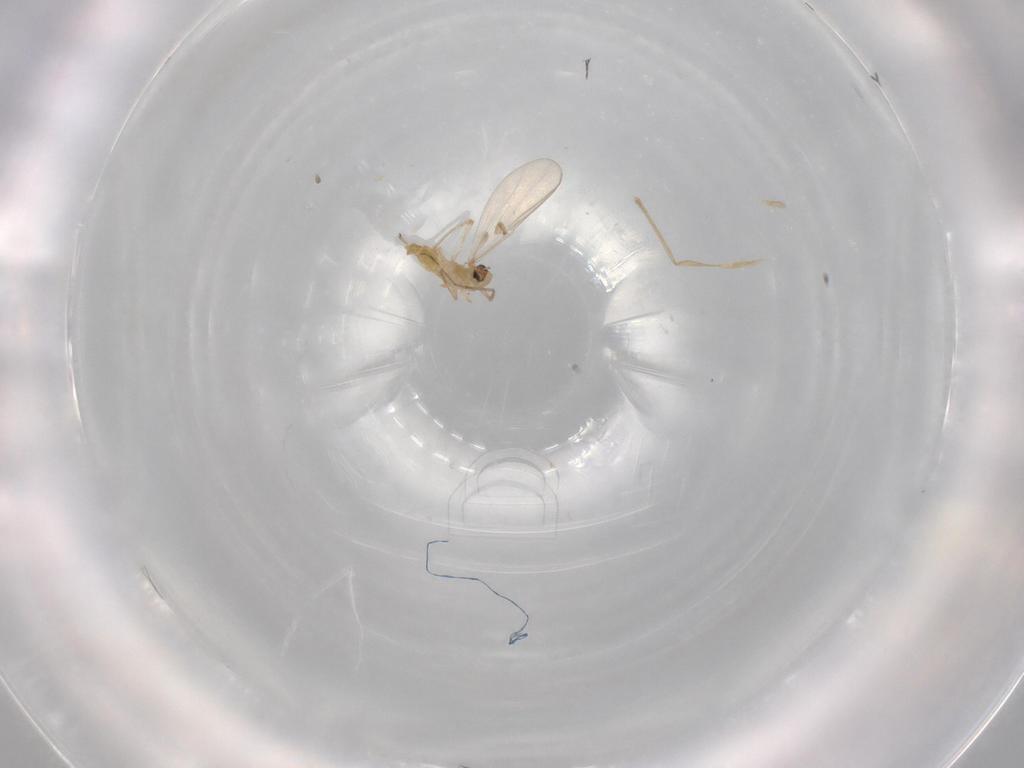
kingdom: Animalia
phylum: Arthropoda
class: Insecta
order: Diptera
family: Chironomidae
